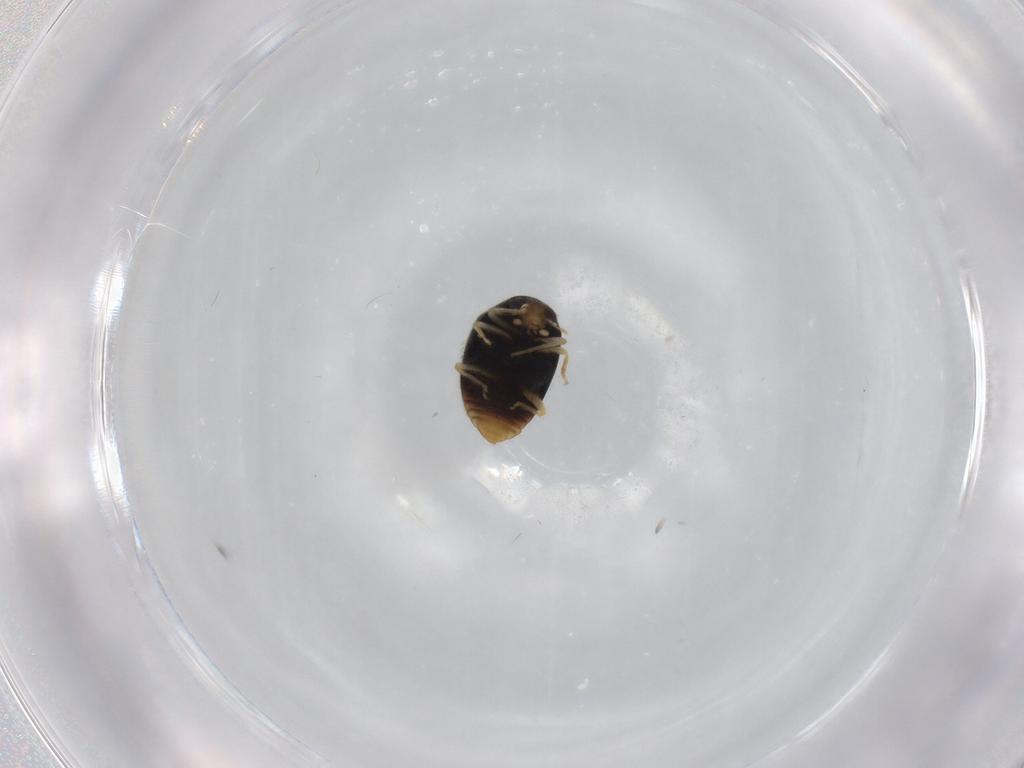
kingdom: Animalia
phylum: Arthropoda
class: Insecta
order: Coleoptera
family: Coccinellidae
